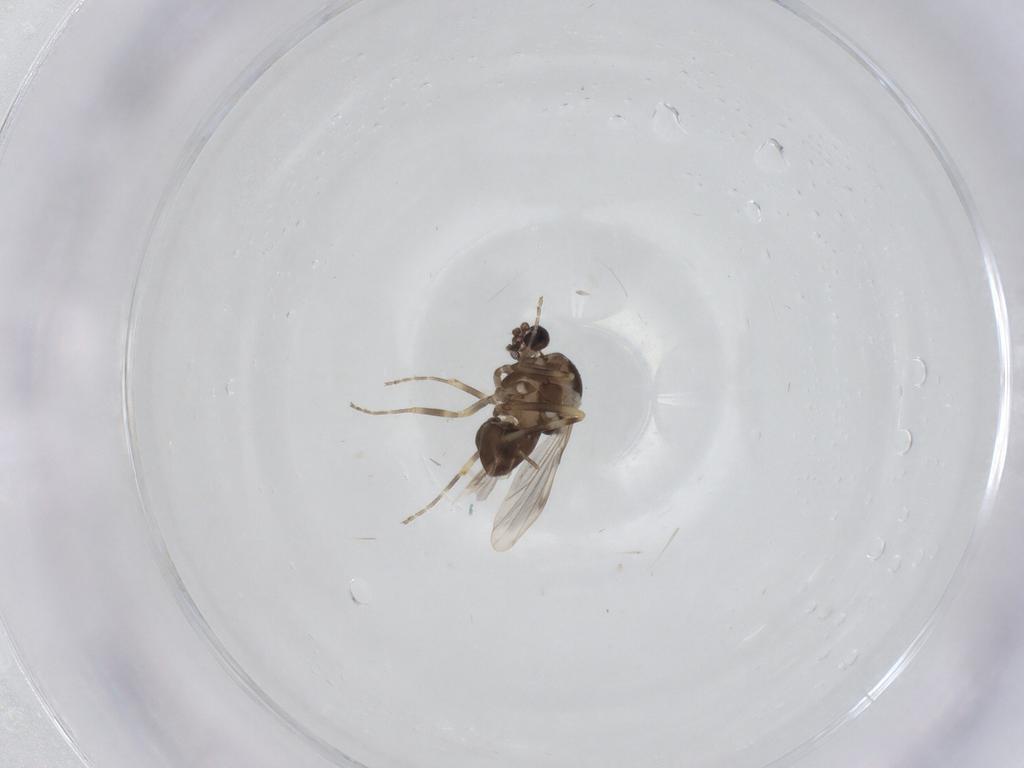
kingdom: Animalia
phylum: Arthropoda
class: Insecta
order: Diptera
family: Ceratopogonidae
